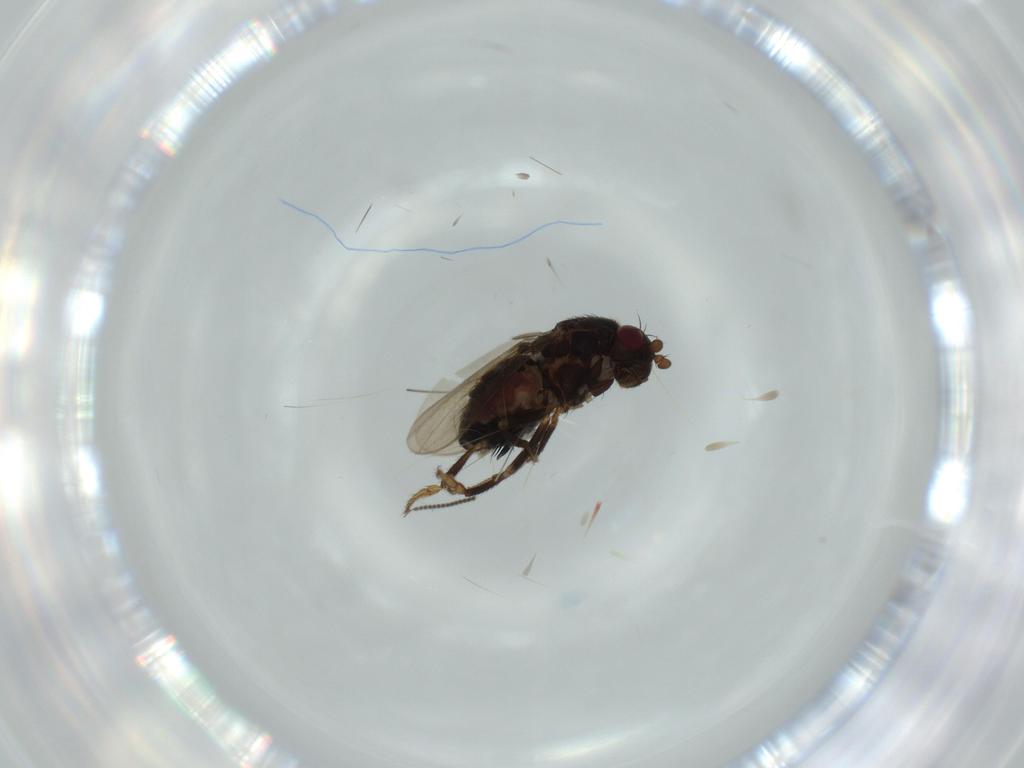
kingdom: Animalia
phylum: Arthropoda
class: Insecta
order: Diptera
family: Sphaeroceridae
